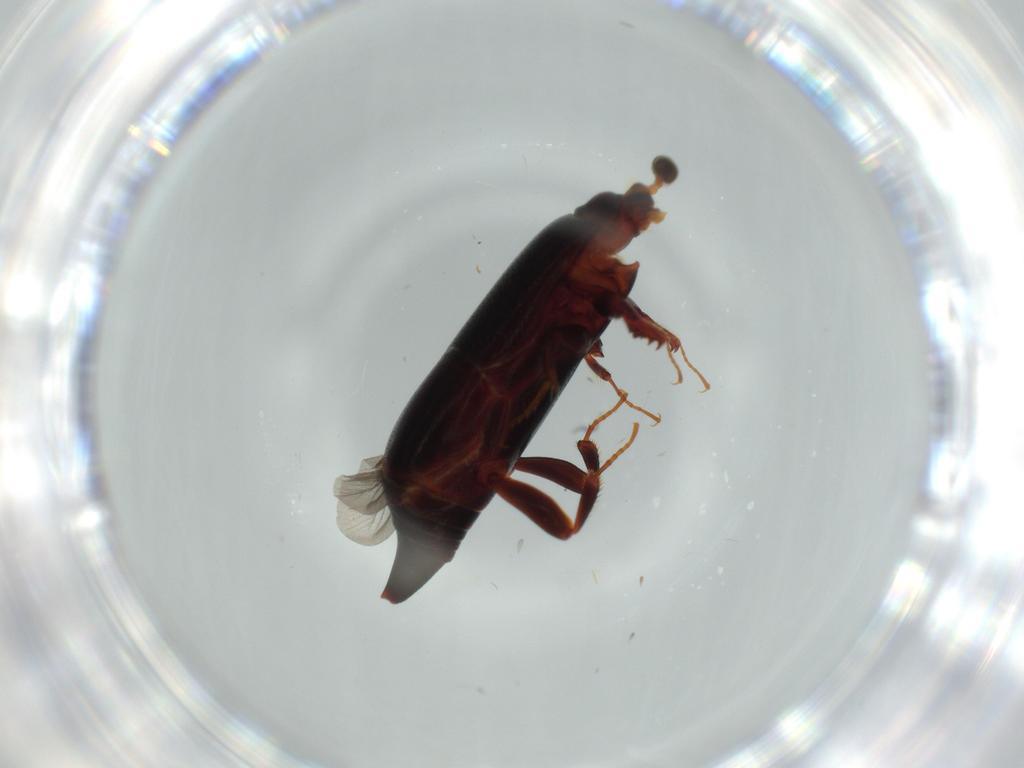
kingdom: Animalia
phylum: Arthropoda
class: Insecta
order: Coleoptera
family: Histeridae
